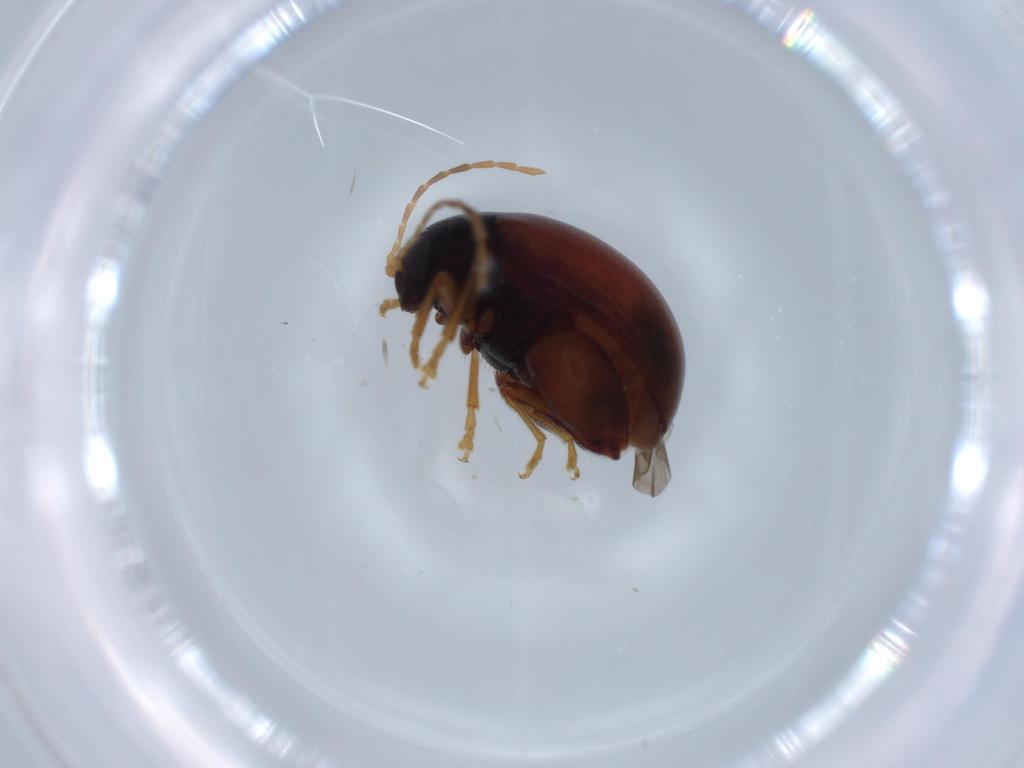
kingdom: Animalia
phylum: Arthropoda
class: Insecta
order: Coleoptera
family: Chrysomelidae
